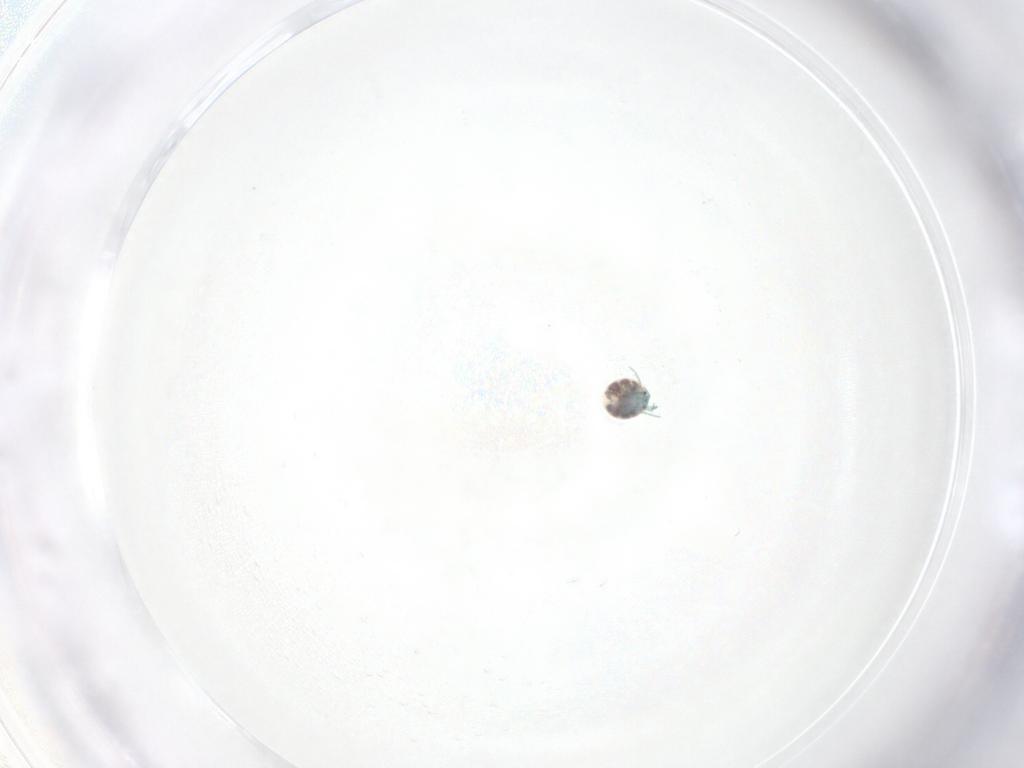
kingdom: Animalia
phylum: Arthropoda
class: Arachnida
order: Trombidiformes
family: Arrenuridae
